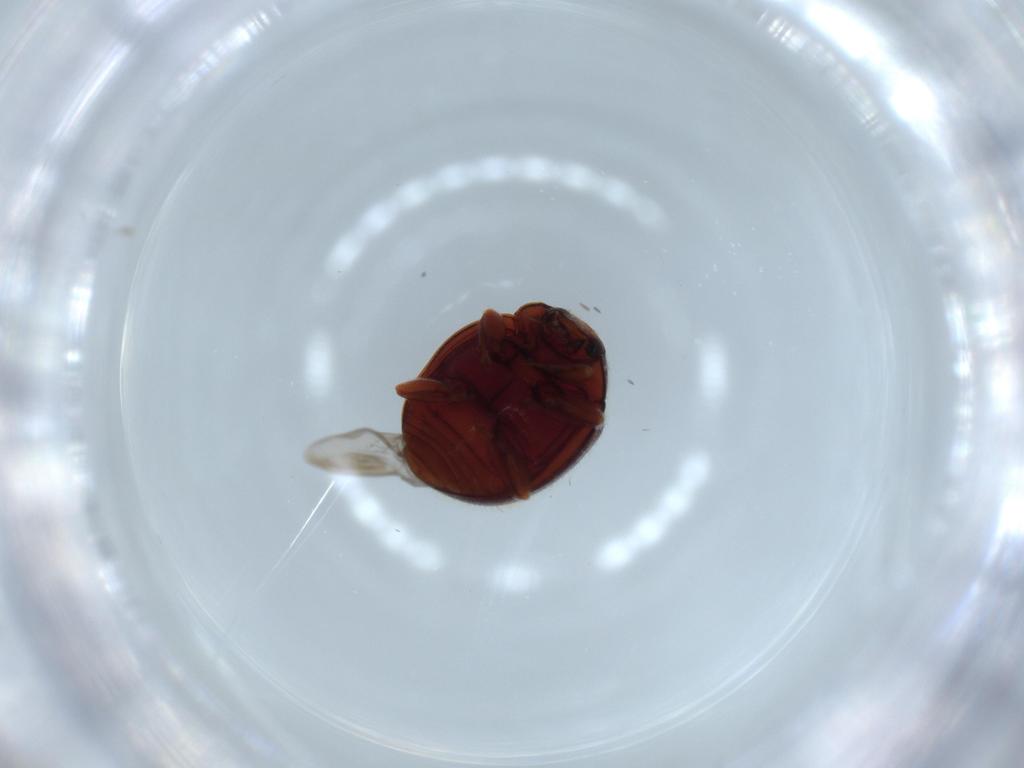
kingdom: Animalia
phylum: Arthropoda
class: Insecta
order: Coleoptera
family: Coccinellidae
